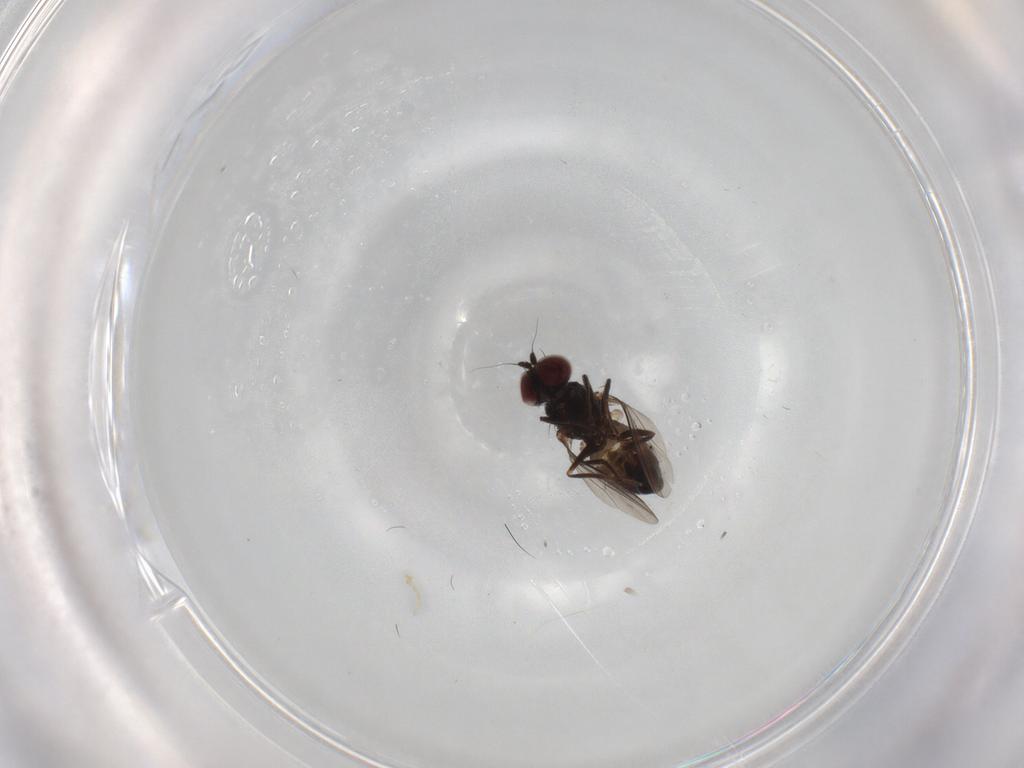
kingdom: Animalia
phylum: Arthropoda
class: Insecta
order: Diptera
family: Dolichopodidae
